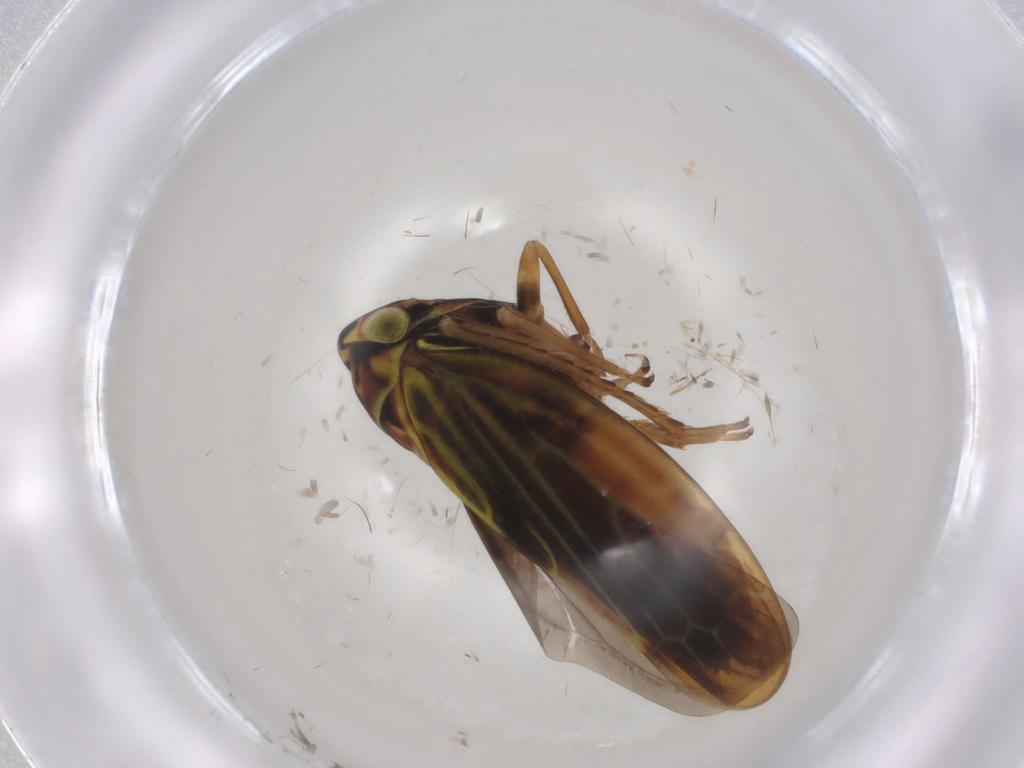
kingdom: Animalia
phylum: Arthropoda
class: Insecta
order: Hemiptera
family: Cicadellidae
